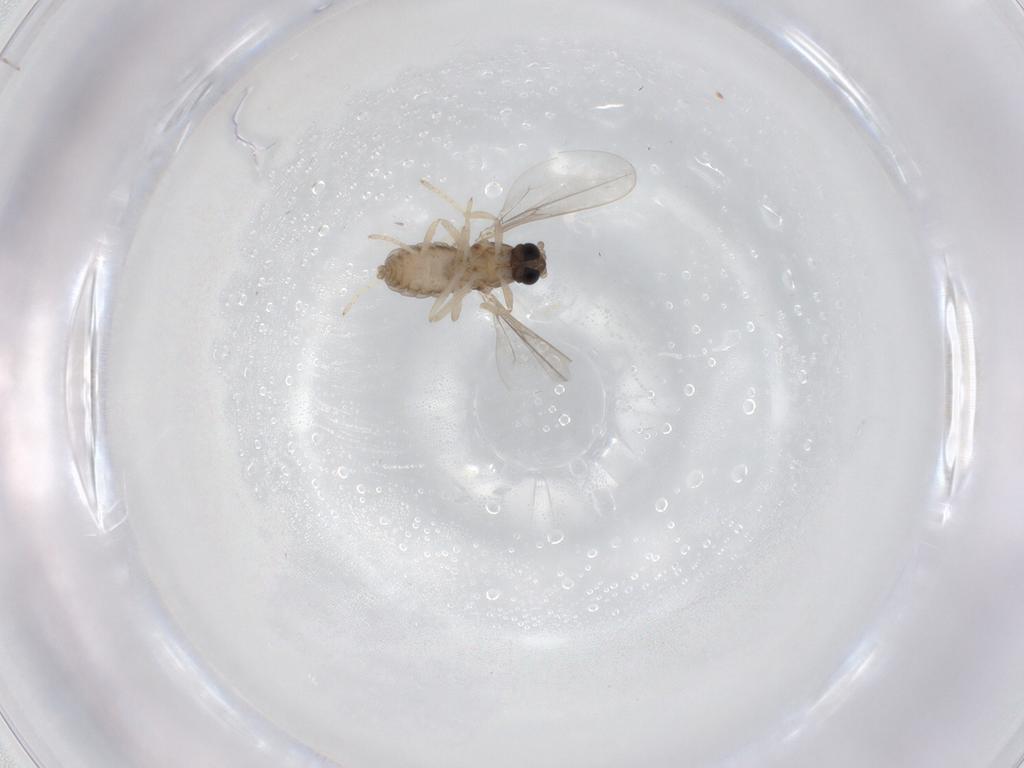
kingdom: Animalia
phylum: Arthropoda
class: Insecta
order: Diptera
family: Cecidomyiidae
